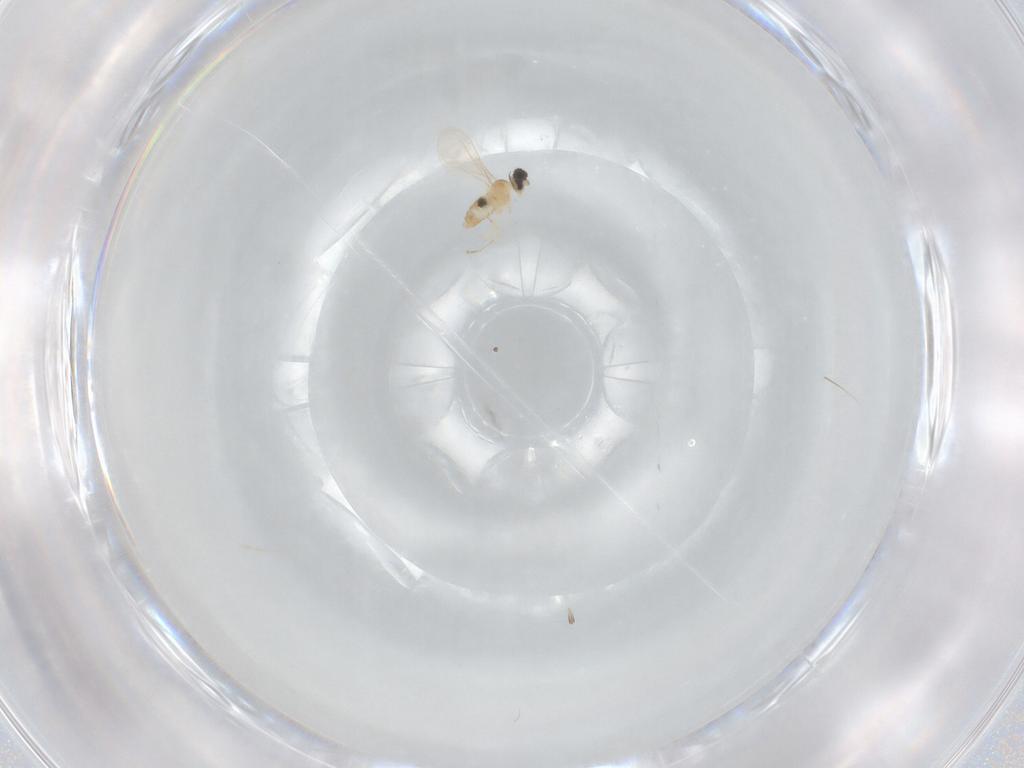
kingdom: Animalia
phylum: Arthropoda
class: Insecta
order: Diptera
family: Cecidomyiidae
